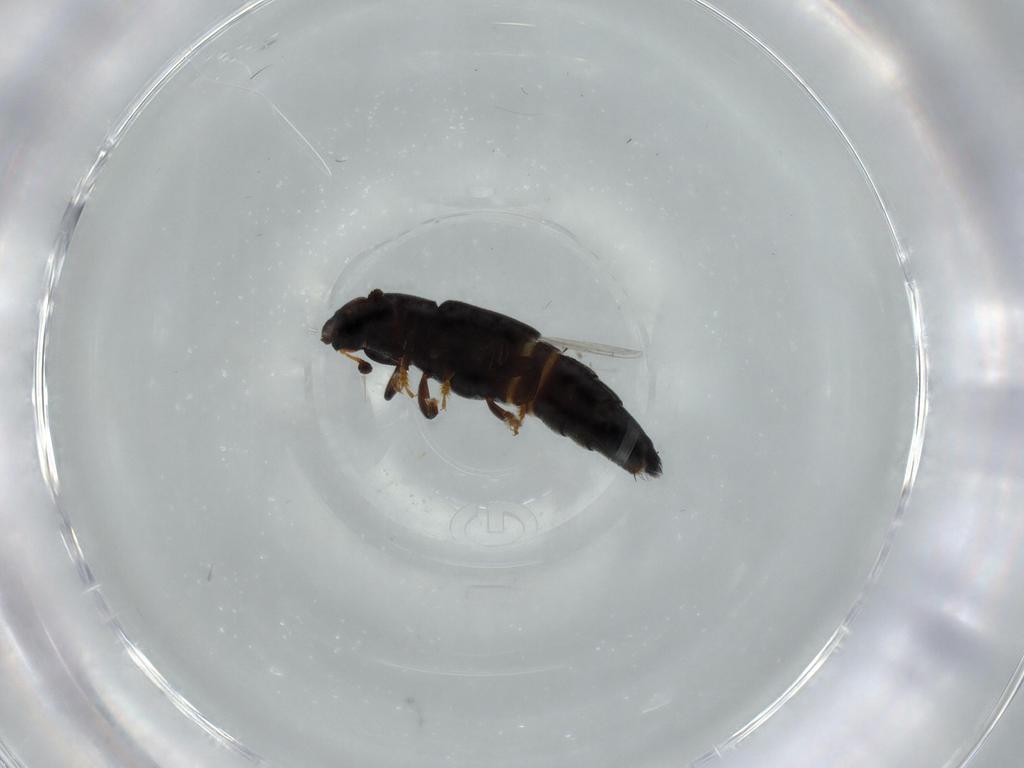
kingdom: Animalia
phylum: Arthropoda
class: Insecta
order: Coleoptera
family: Chrysomelidae
